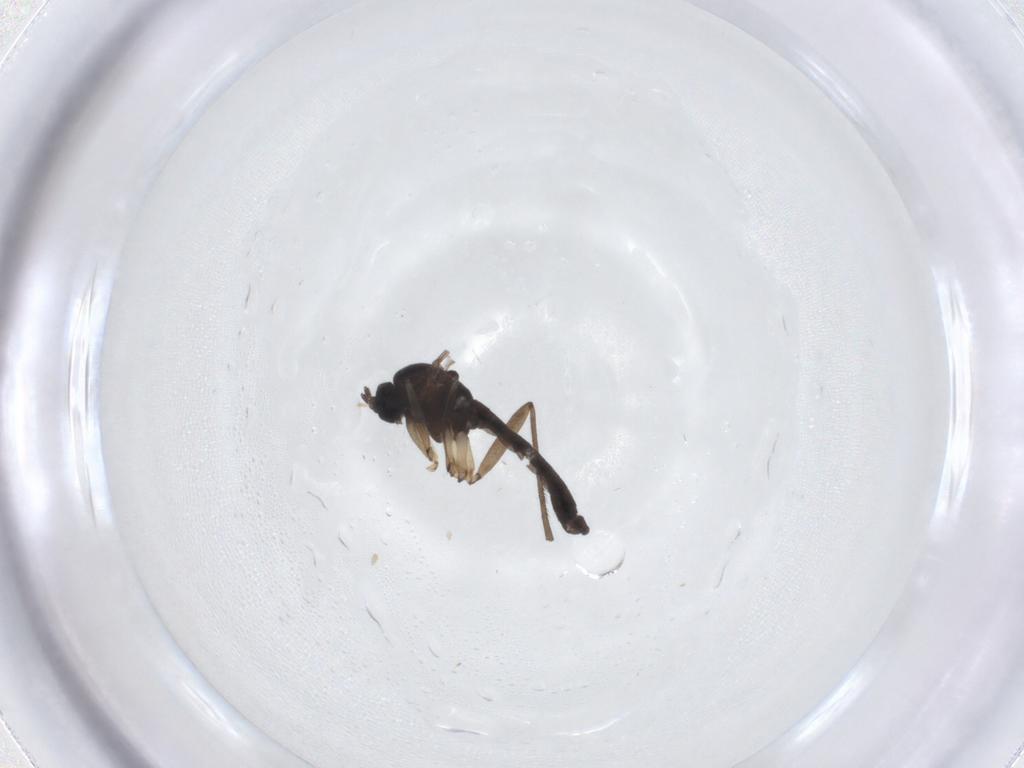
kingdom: Animalia
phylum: Arthropoda
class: Insecta
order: Diptera
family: Sciaridae
